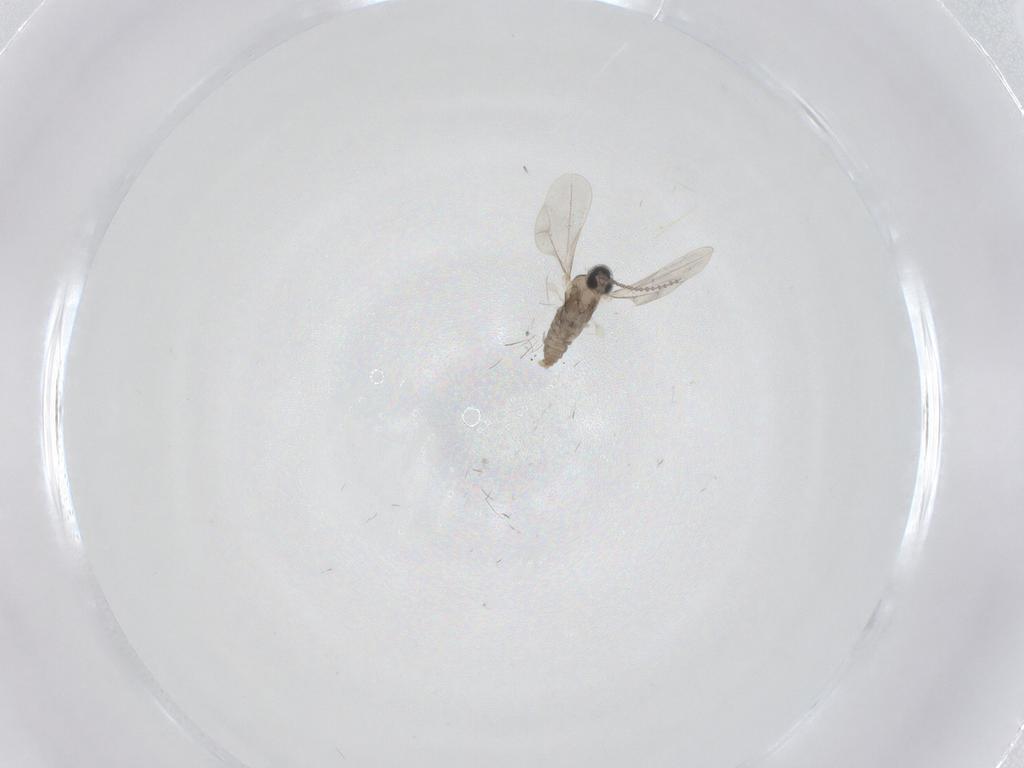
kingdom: Animalia
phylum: Arthropoda
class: Insecta
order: Diptera
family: Cecidomyiidae
